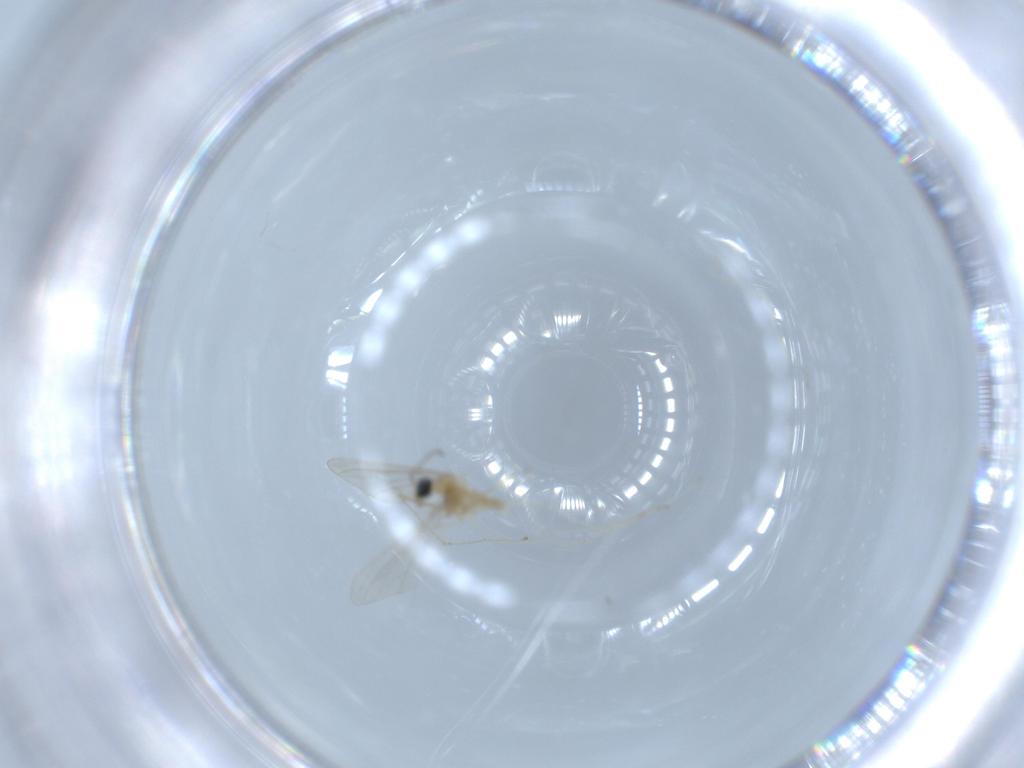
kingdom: Animalia
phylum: Arthropoda
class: Insecta
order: Diptera
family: Cecidomyiidae
